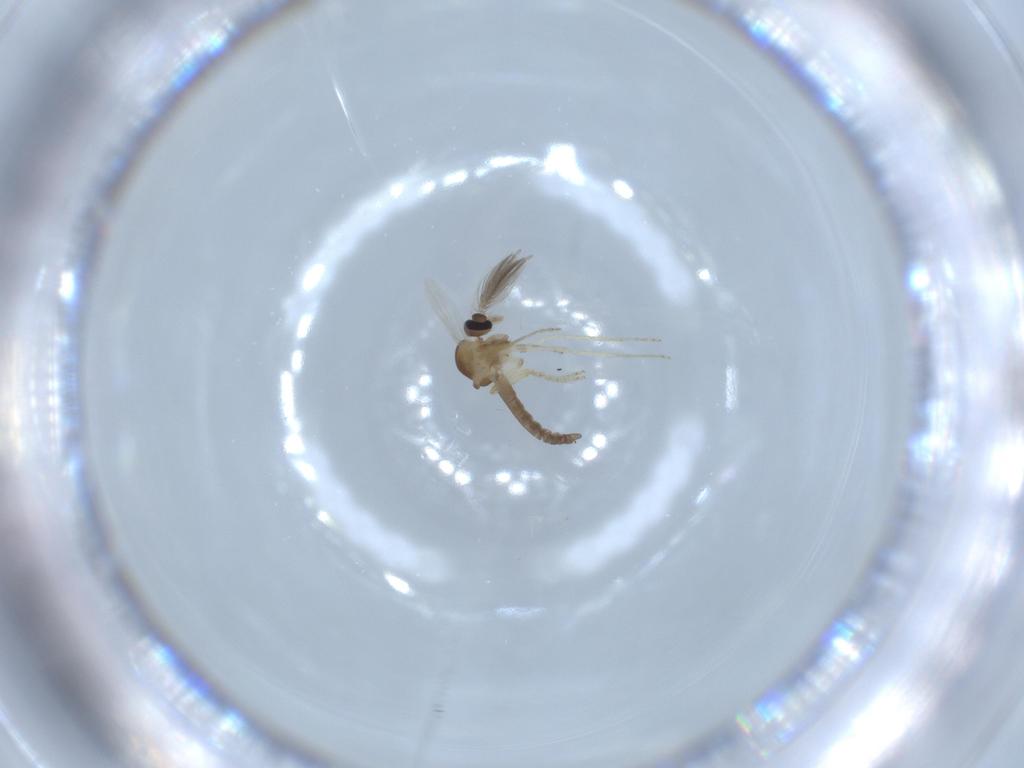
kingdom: Animalia
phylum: Arthropoda
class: Insecta
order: Diptera
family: Ceratopogonidae
